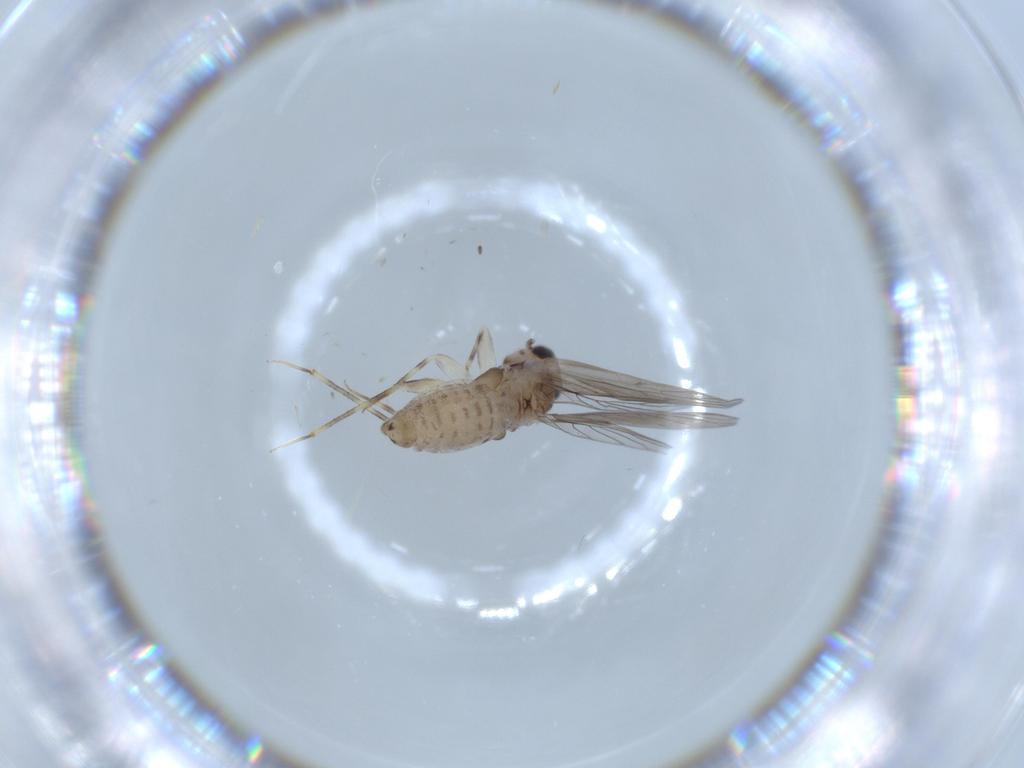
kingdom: Animalia
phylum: Arthropoda
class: Insecta
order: Psocodea
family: Lepidopsocidae
